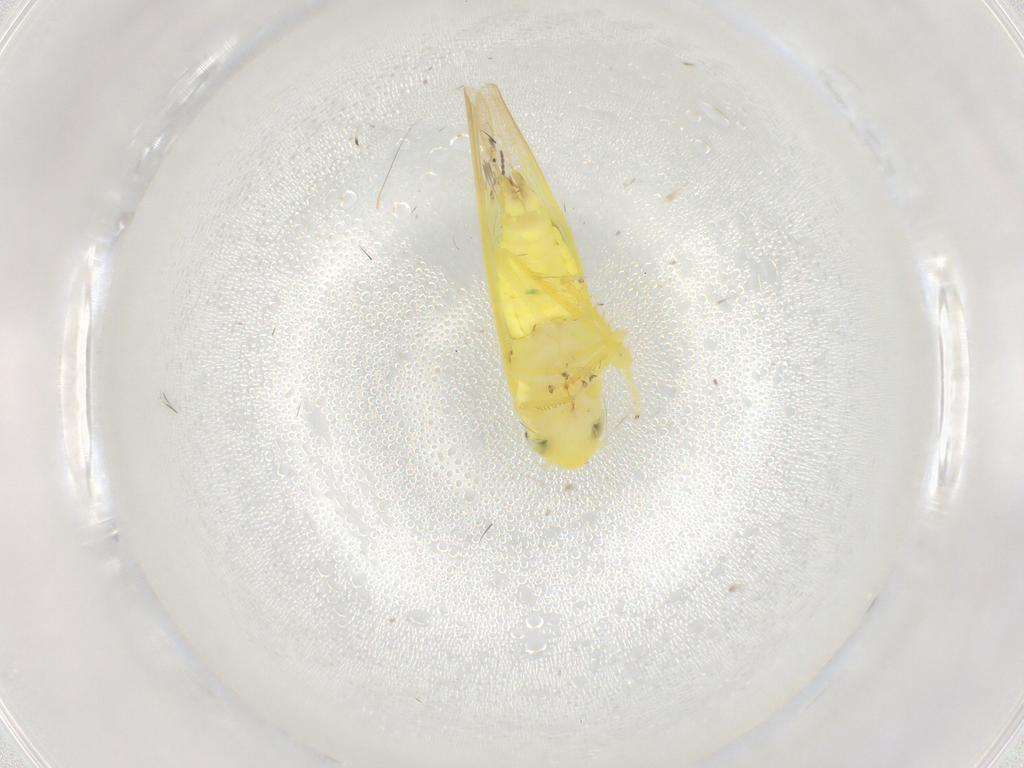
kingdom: Animalia
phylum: Arthropoda
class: Insecta
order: Hemiptera
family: Cicadellidae
